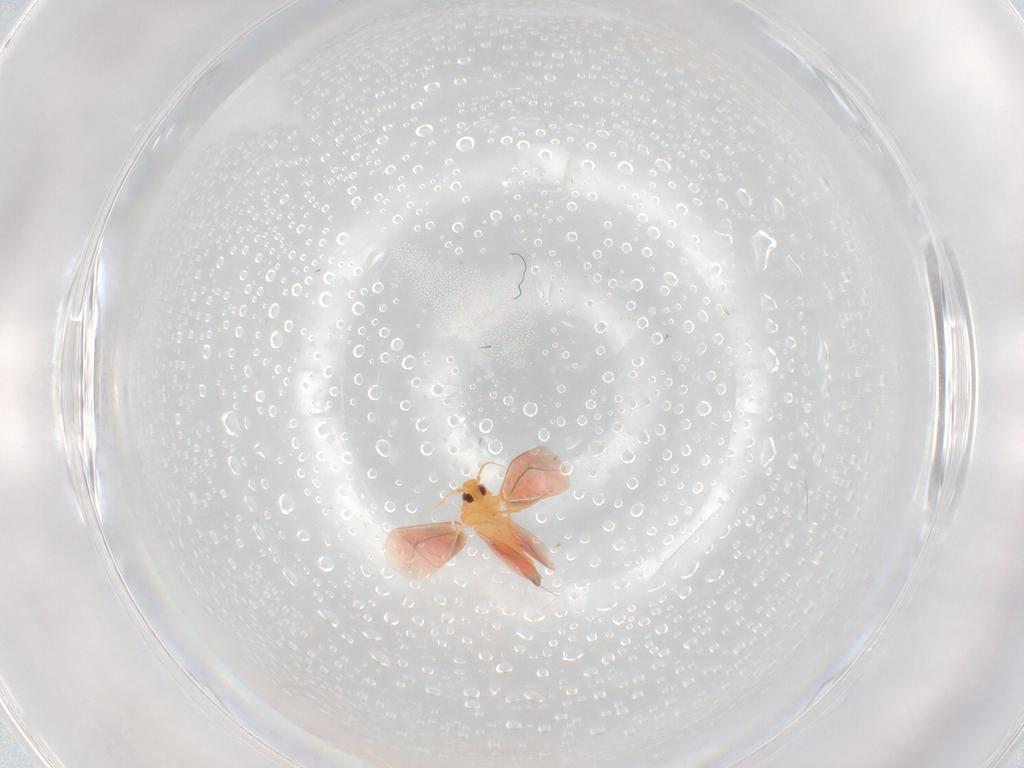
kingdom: Animalia
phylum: Arthropoda
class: Insecta
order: Hemiptera
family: Aleyrodidae
